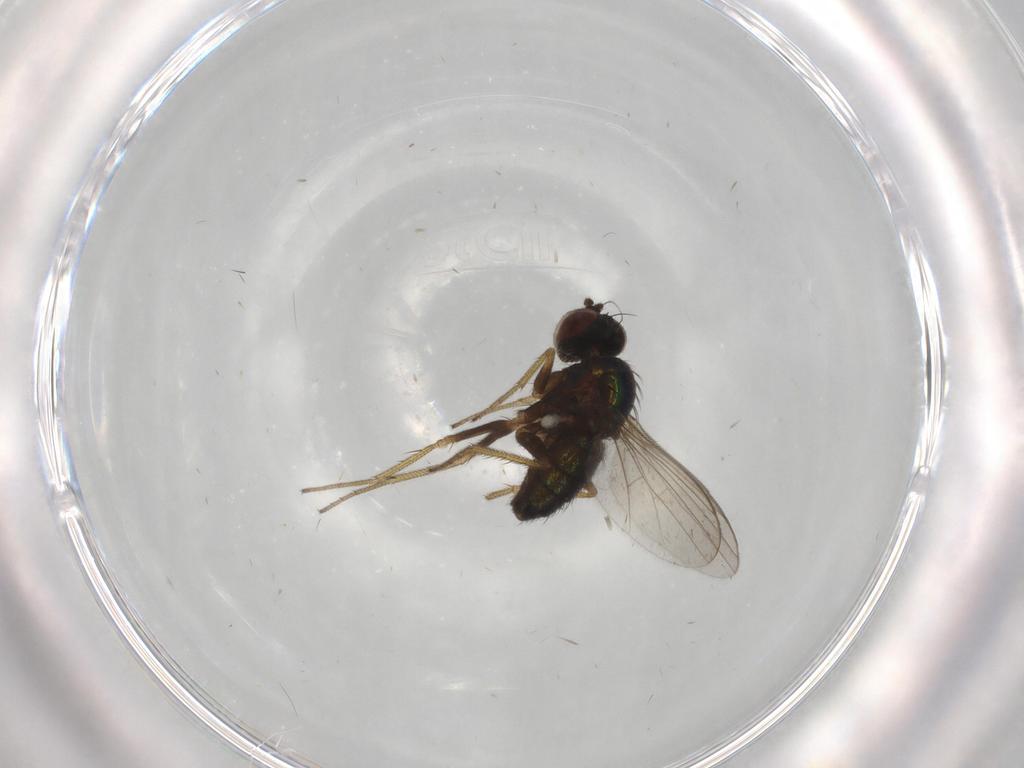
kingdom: Animalia
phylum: Arthropoda
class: Insecta
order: Diptera
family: Dolichopodidae
